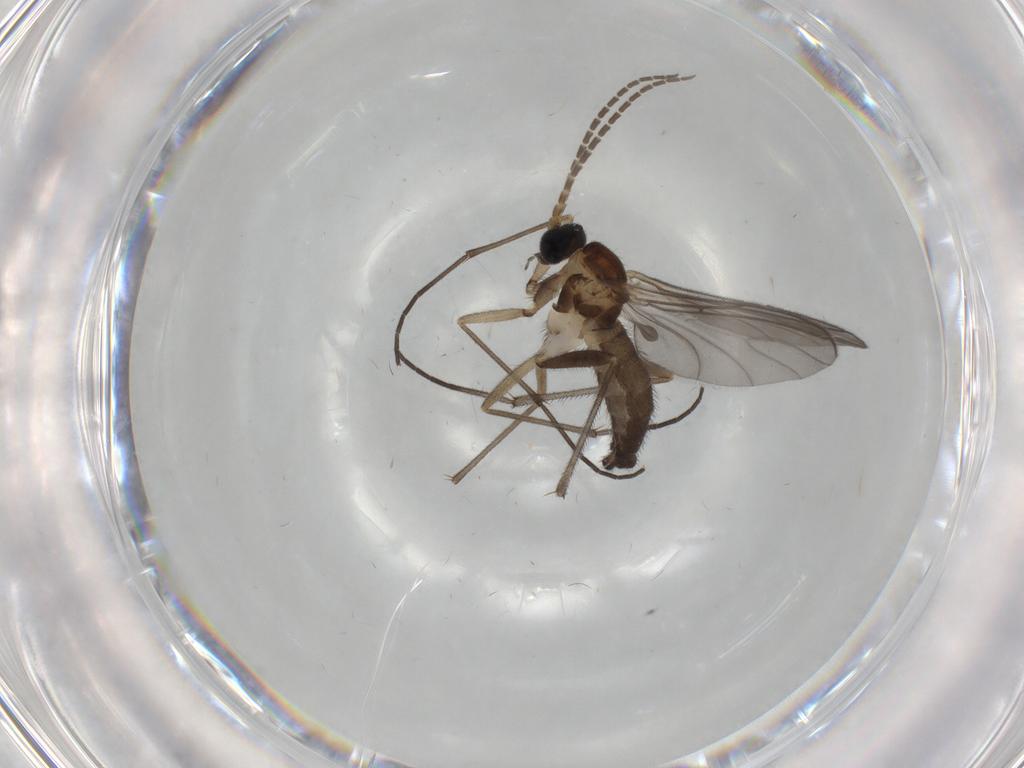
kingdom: Animalia
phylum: Arthropoda
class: Insecta
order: Diptera
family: Sciaridae
